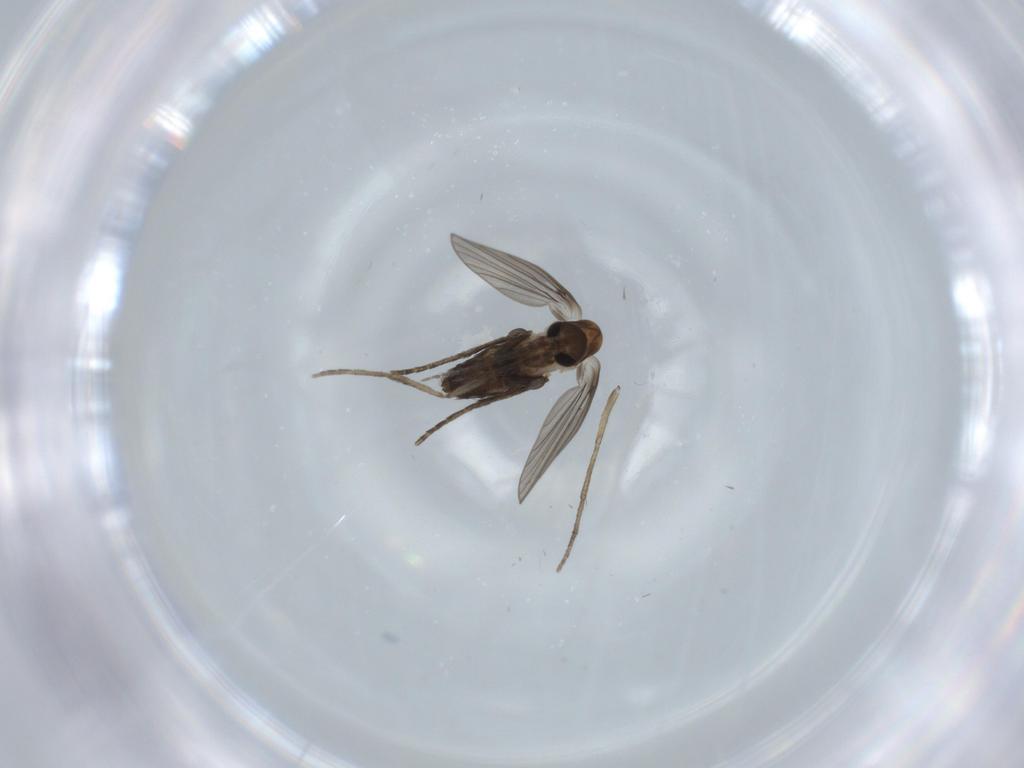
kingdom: Animalia
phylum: Arthropoda
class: Insecta
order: Diptera
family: Psychodidae
